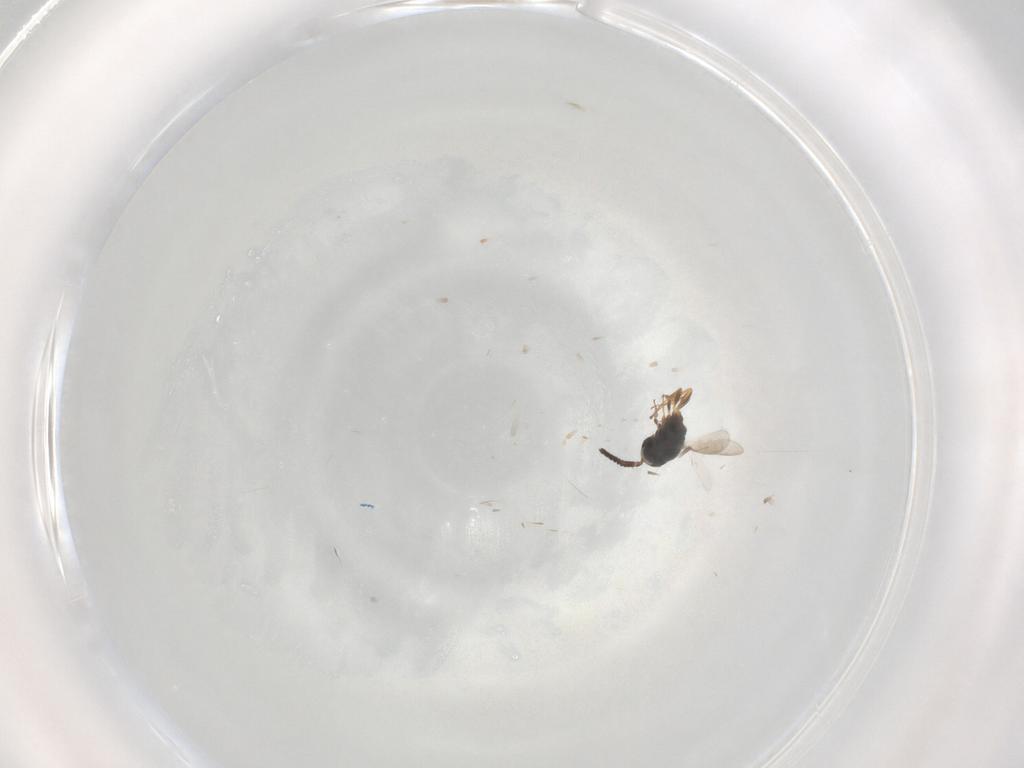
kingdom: Animalia
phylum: Arthropoda
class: Insecta
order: Hymenoptera
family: Scelionidae
